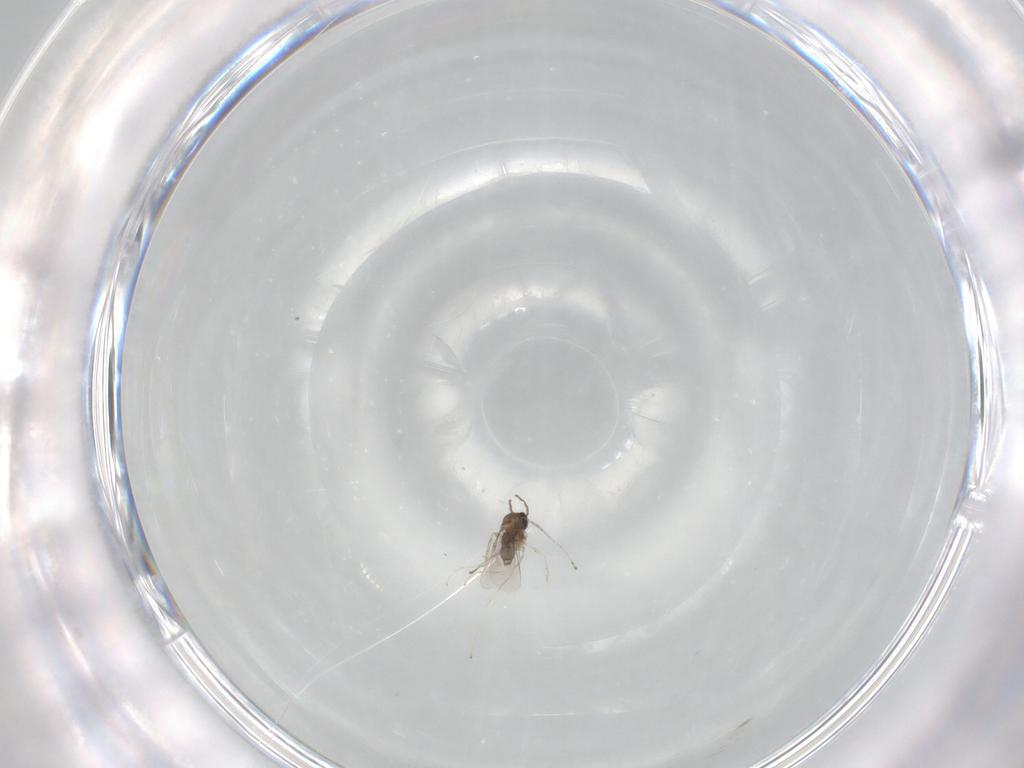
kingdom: Animalia
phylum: Arthropoda
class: Insecta
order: Diptera
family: Cecidomyiidae
